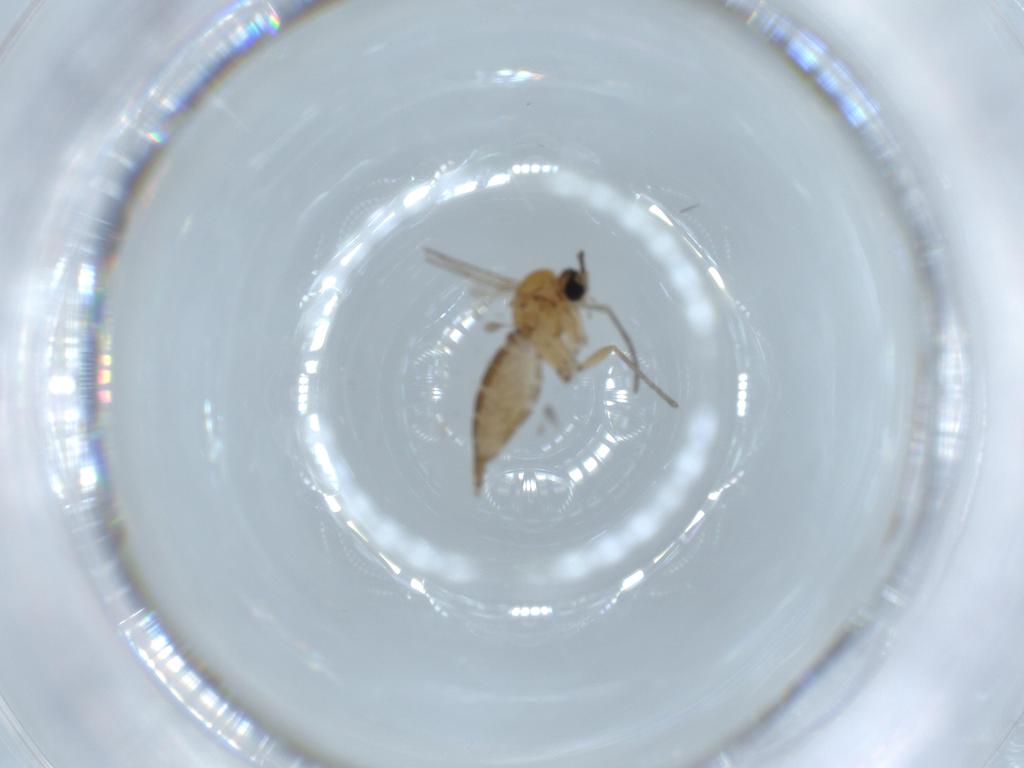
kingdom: Animalia
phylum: Arthropoda
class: Insecta
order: Diptera
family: Sciaridae
